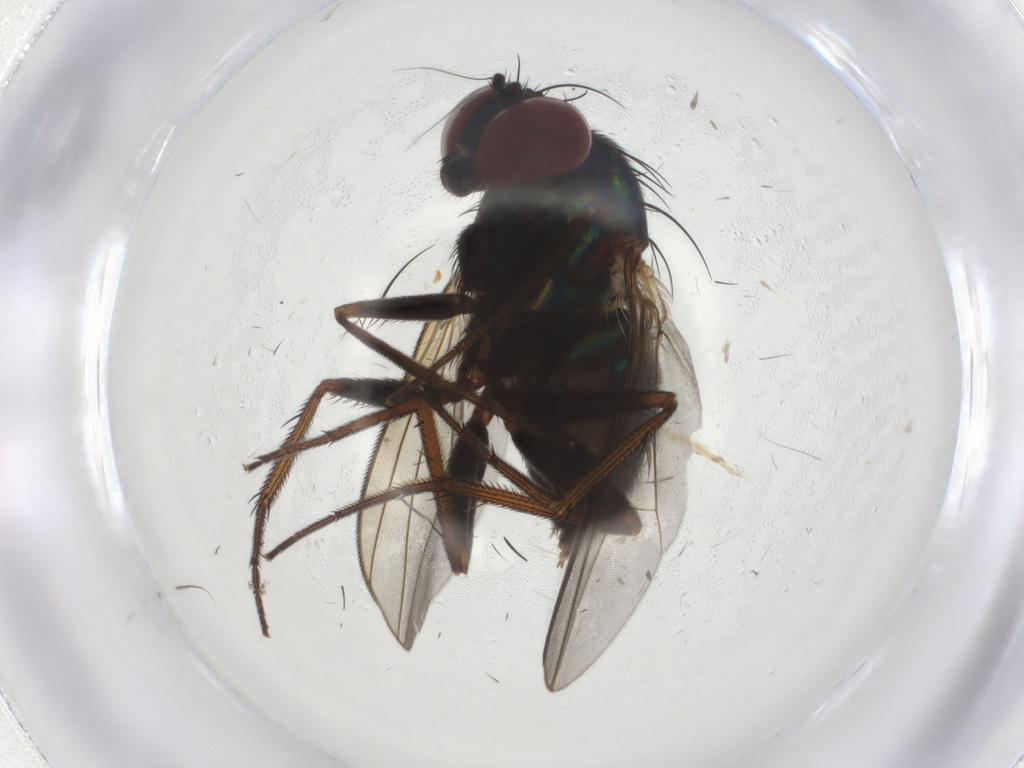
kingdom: Animalia
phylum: Arthropoda
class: Insecta
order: Diptera
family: Dolichopodidae
